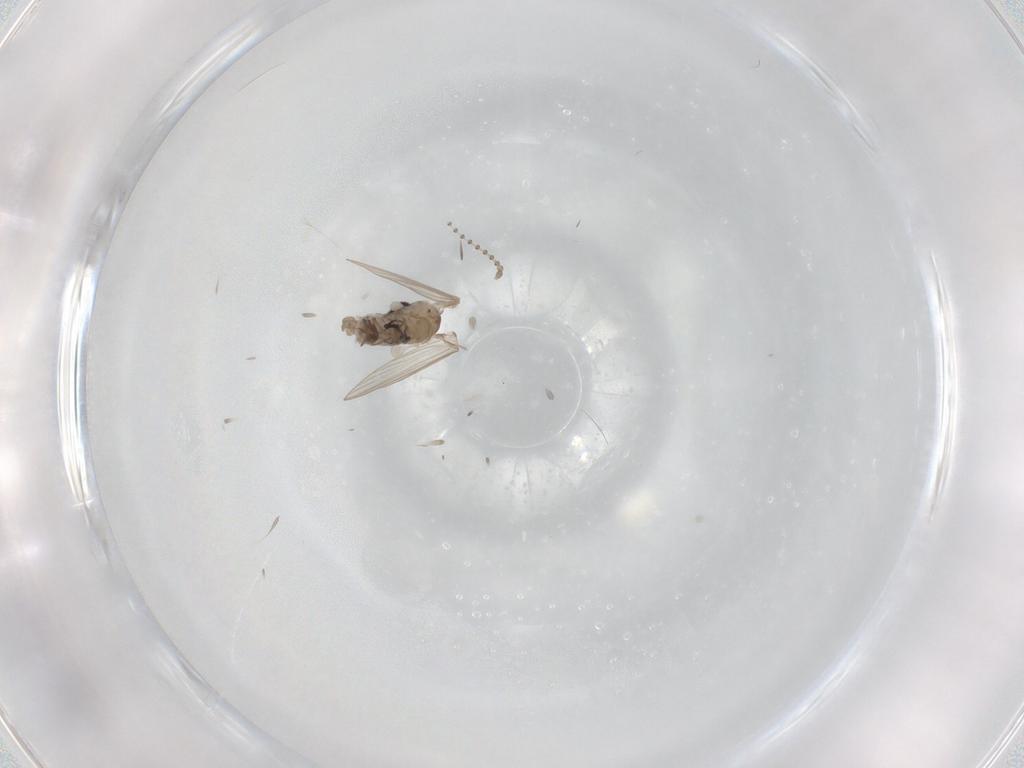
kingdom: Animalia
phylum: Arthropoda
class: Insecta
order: Diptera
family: Psychodidae
